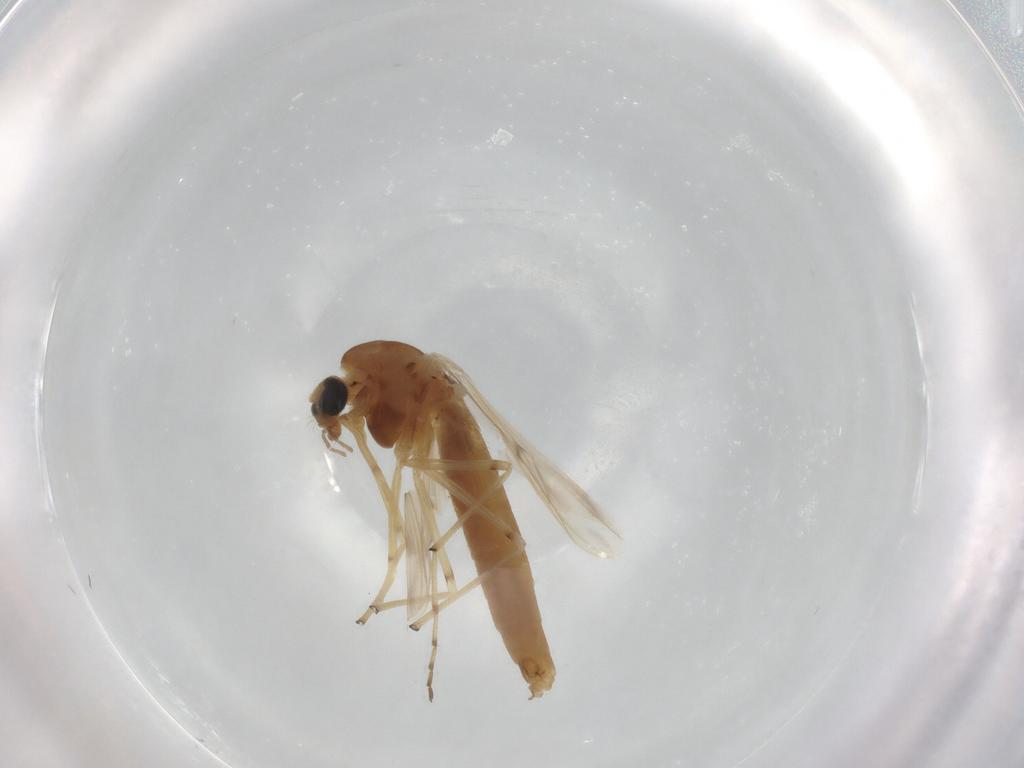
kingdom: Animalia
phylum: Arthropoda
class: Insecta
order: Diptera
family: Chironomidae
